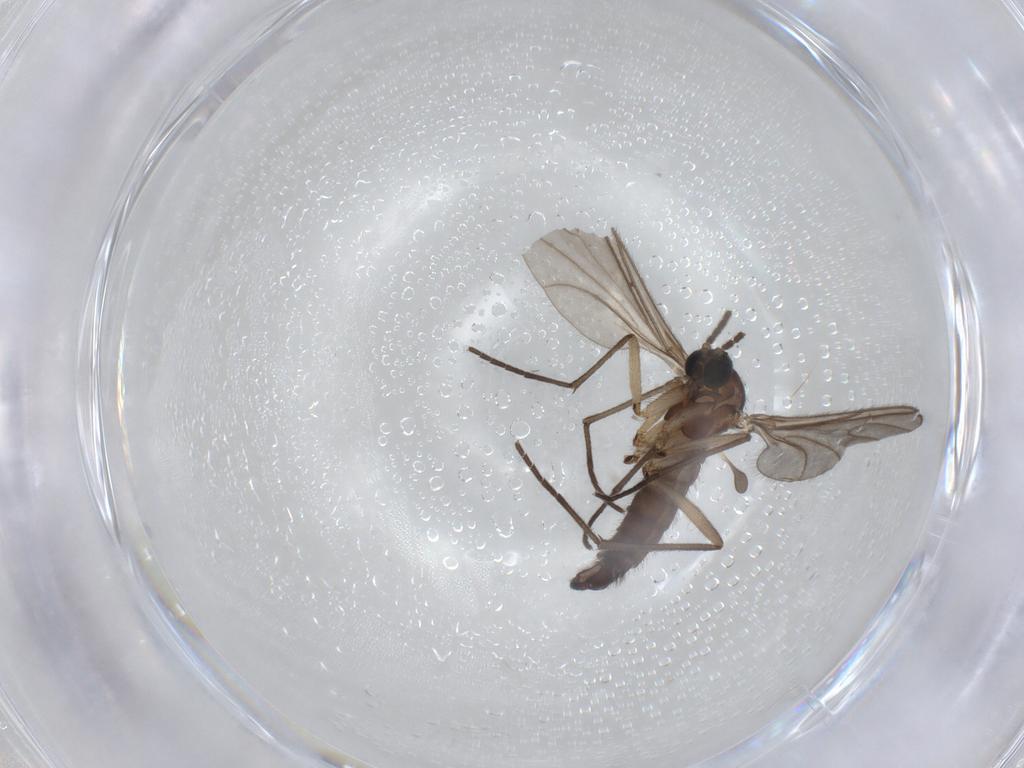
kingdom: Animalia
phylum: Arthropoda
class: Insecta
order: Diptera
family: Sciaridae
